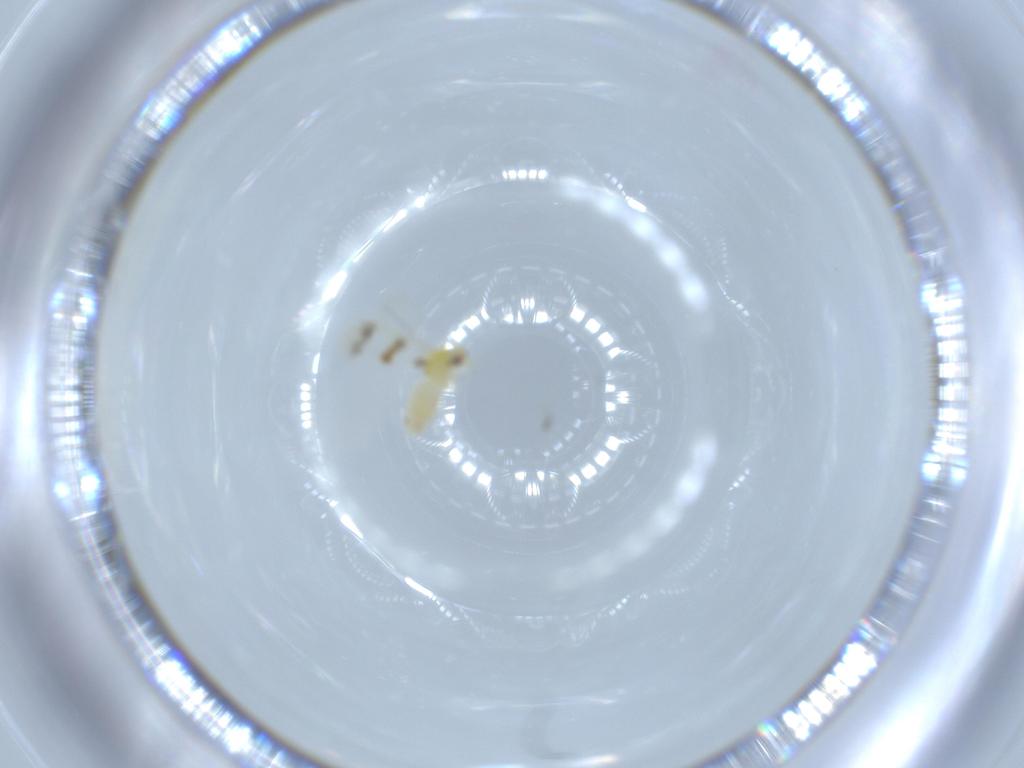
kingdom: Animalia
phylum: Arthropoda
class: Insecta
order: Hemiptera
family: Aleyrodidae
